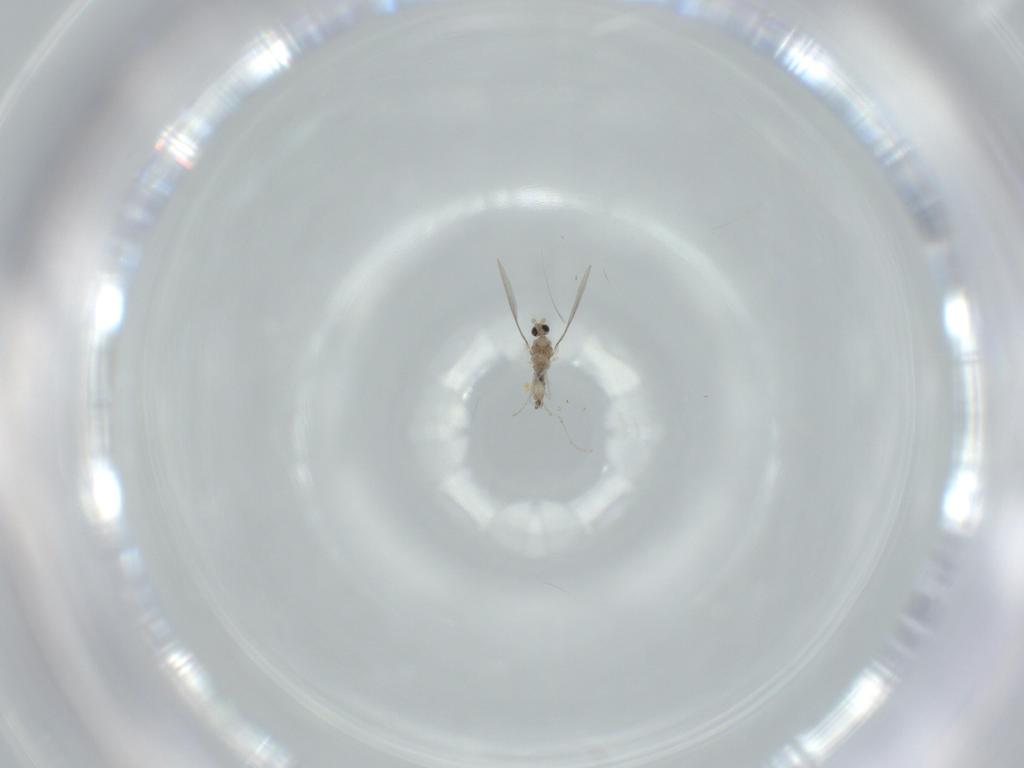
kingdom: Animalia
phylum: Arthropoda
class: Insecta
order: Diptera
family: Cecidomyiidae
